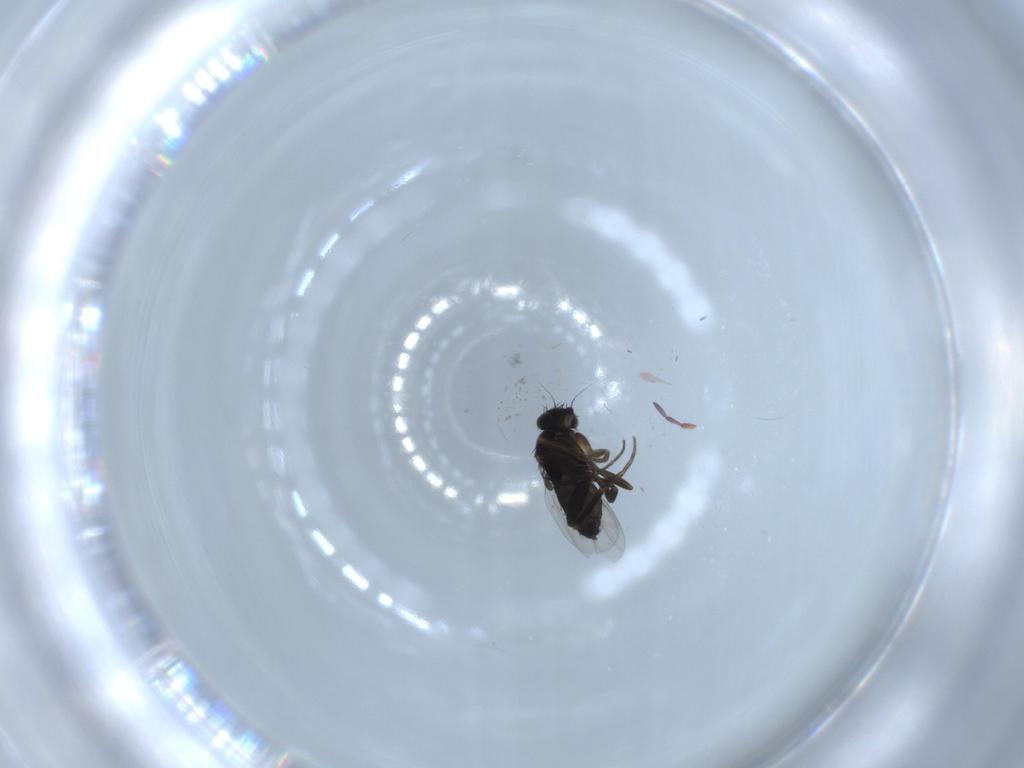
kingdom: Animalia
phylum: Arthropoda
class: Insecta
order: Diptera
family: Phoridae
